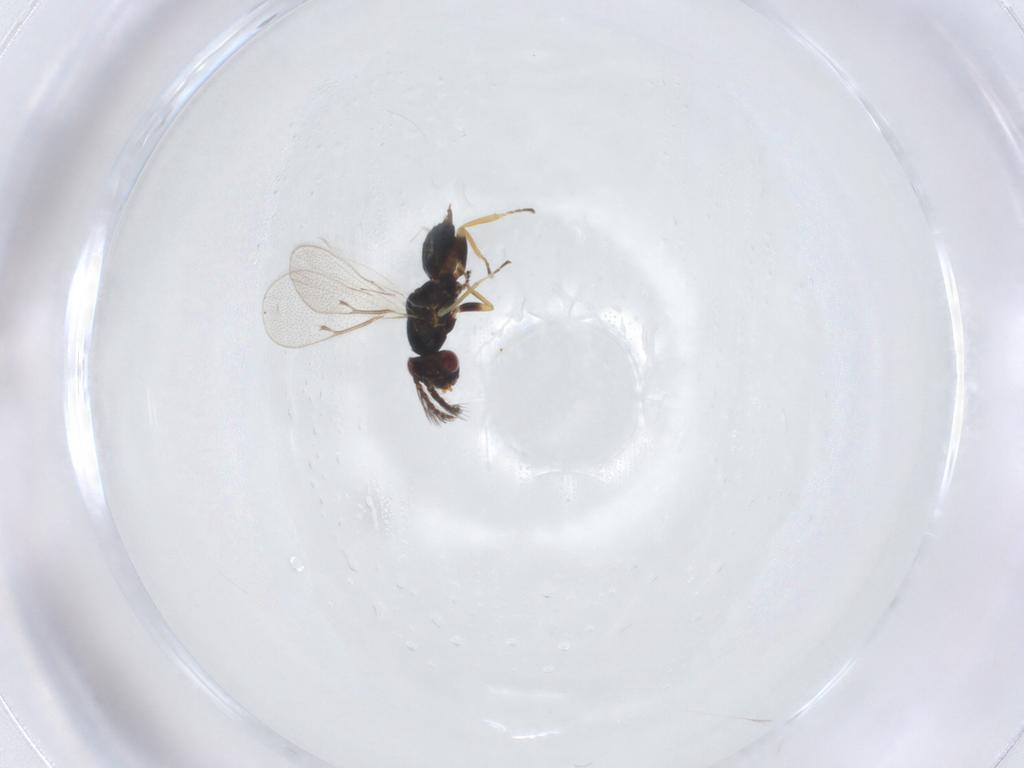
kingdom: Animalia
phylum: Arthropoda
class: Insecta
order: Hymenoptera
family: Eulophidae
